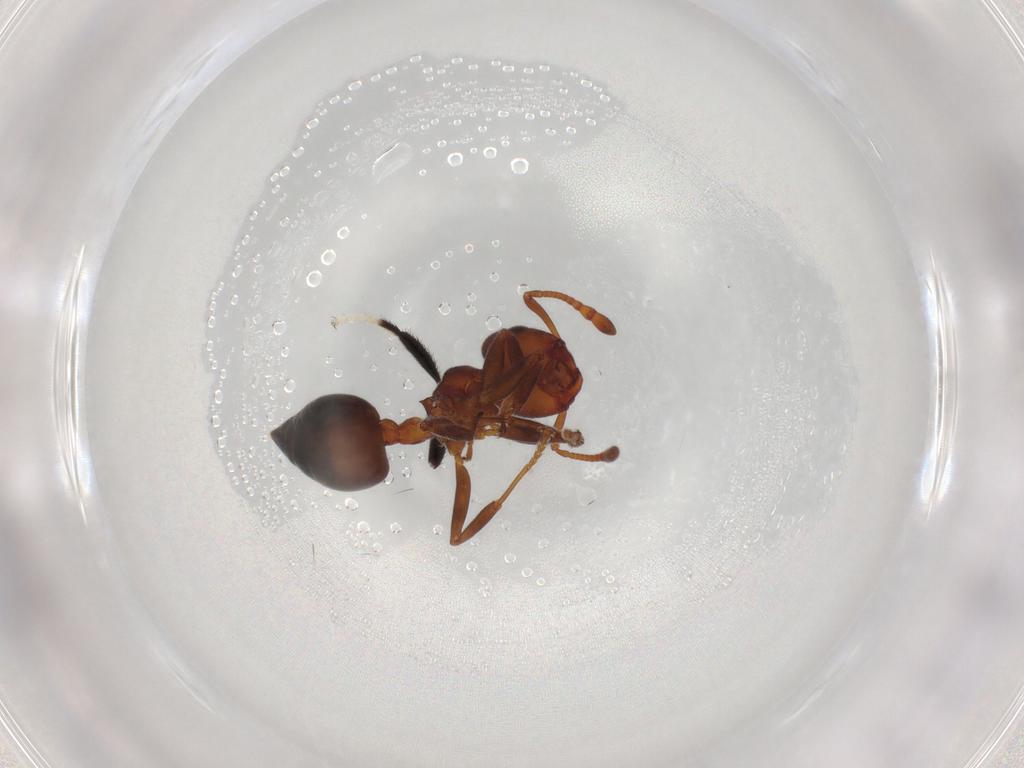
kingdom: Animalia
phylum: Arthropoda
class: Insecta
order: Hymenoptera
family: Formicidae
